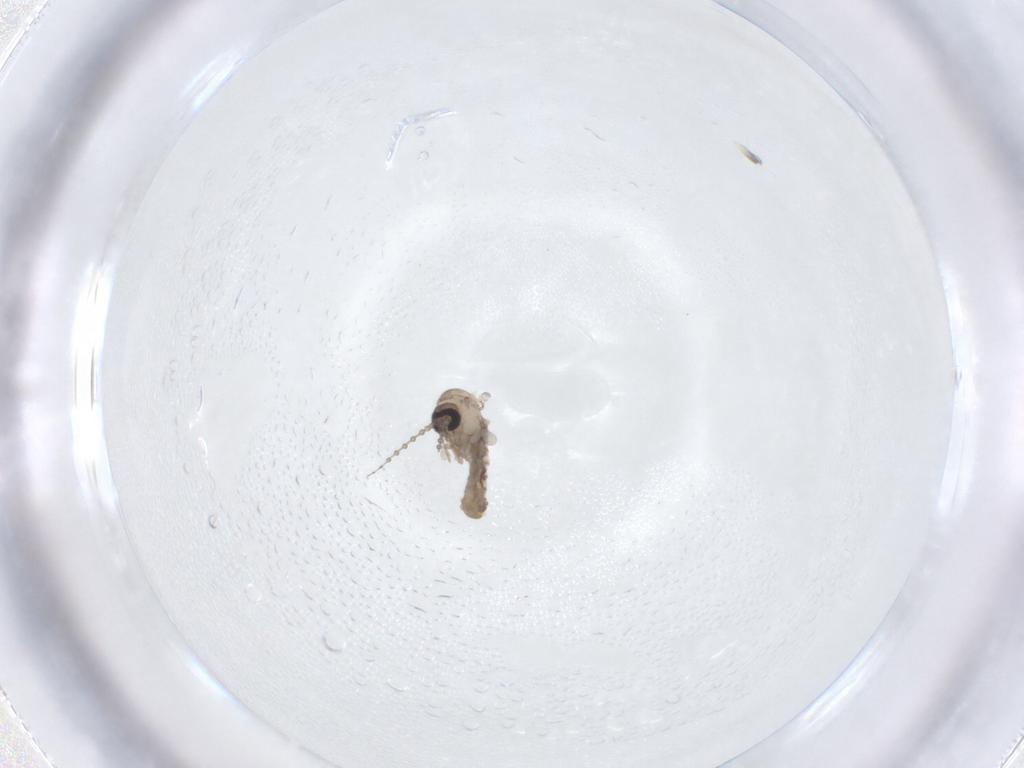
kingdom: Animalia
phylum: Arthropoda
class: Insecta
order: Diptera
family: Psychodidae
